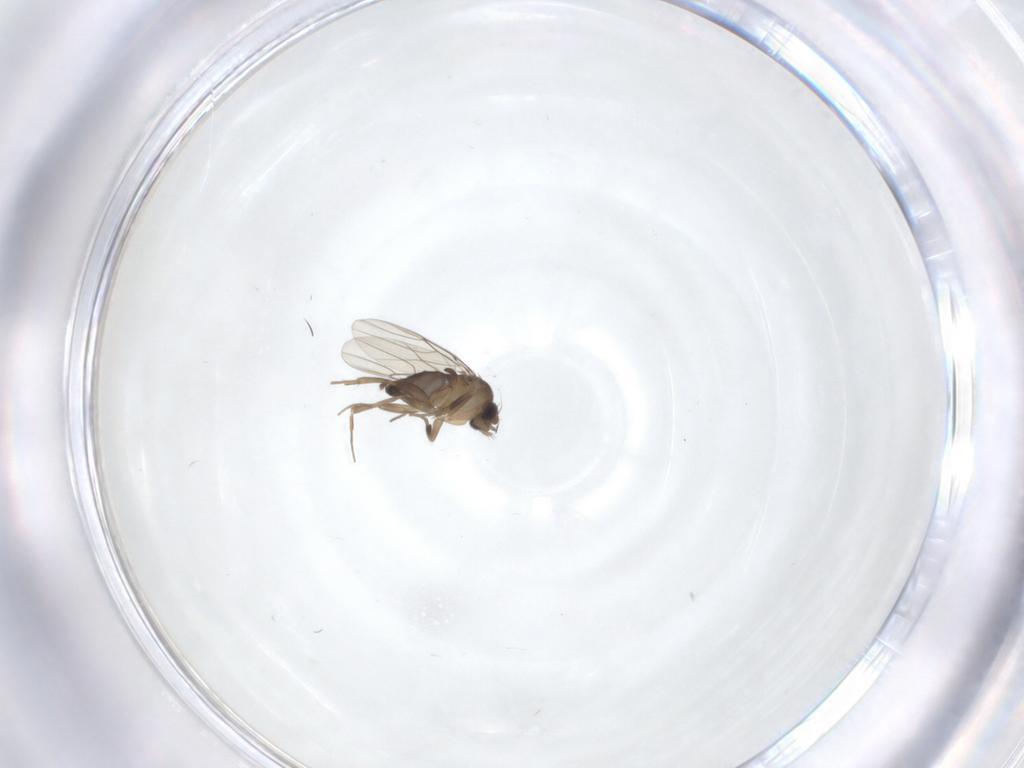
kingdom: Animalia
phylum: Arthropoda
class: Insecta
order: Diptera
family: Phoridae
